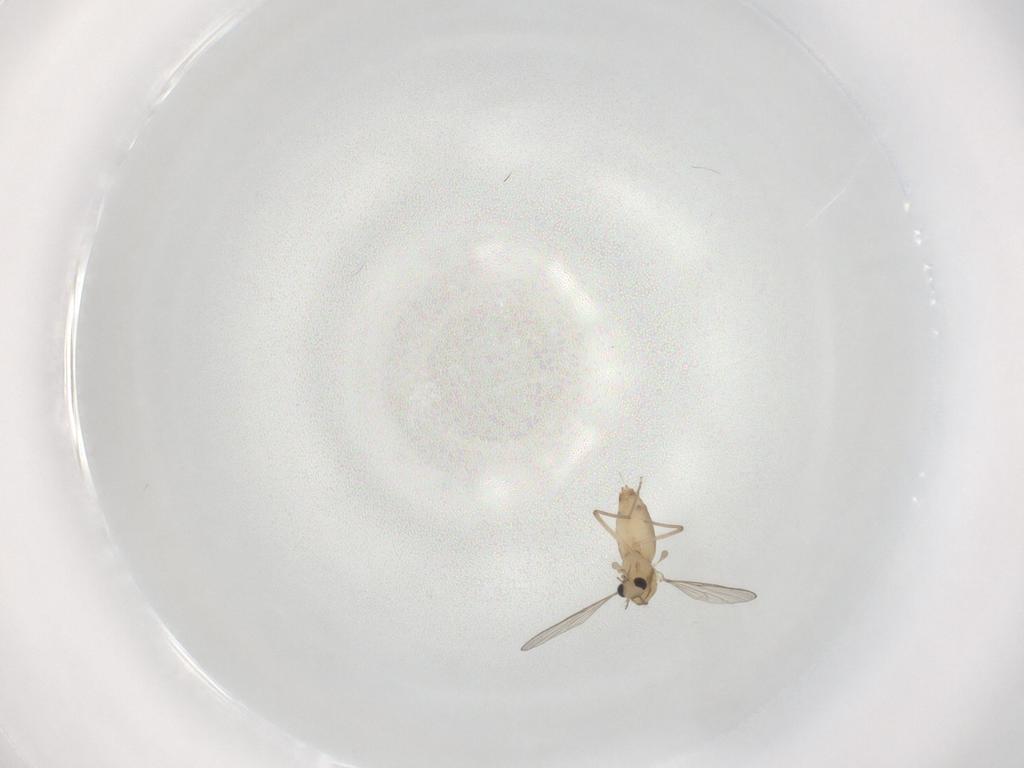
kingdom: Animalia
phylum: Arthropoda
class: Insecta
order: Diptera
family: Chironomidae
